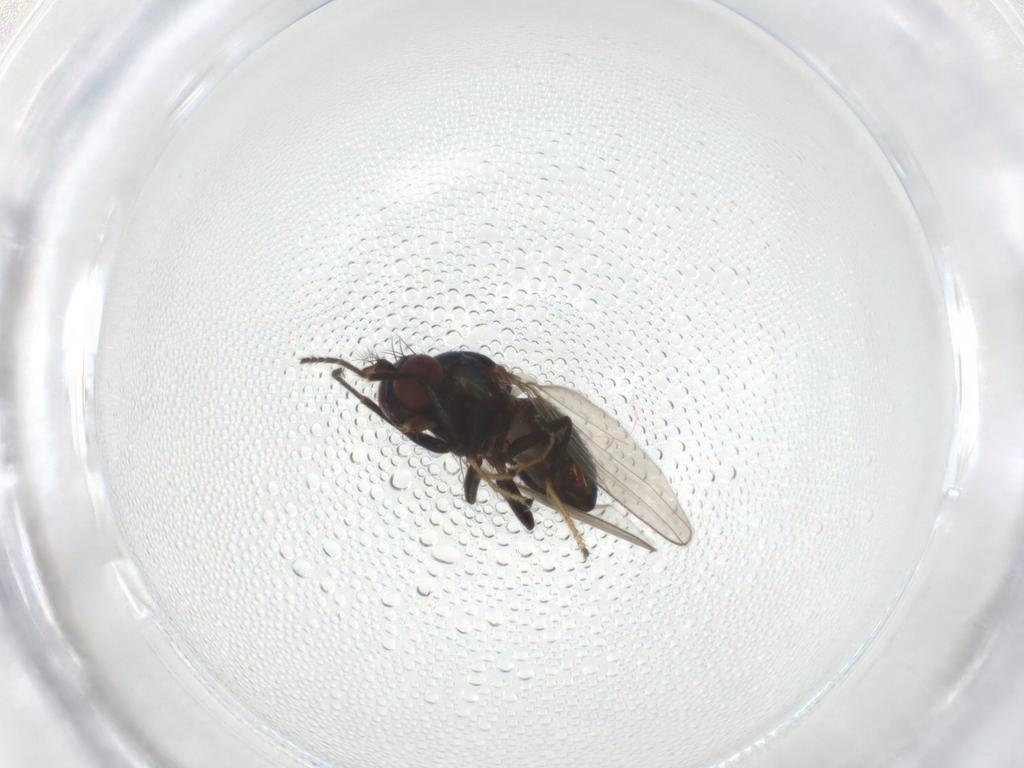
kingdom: Animalia
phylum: Arthropoda
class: Insecta
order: Diptera
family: Ephydridae
